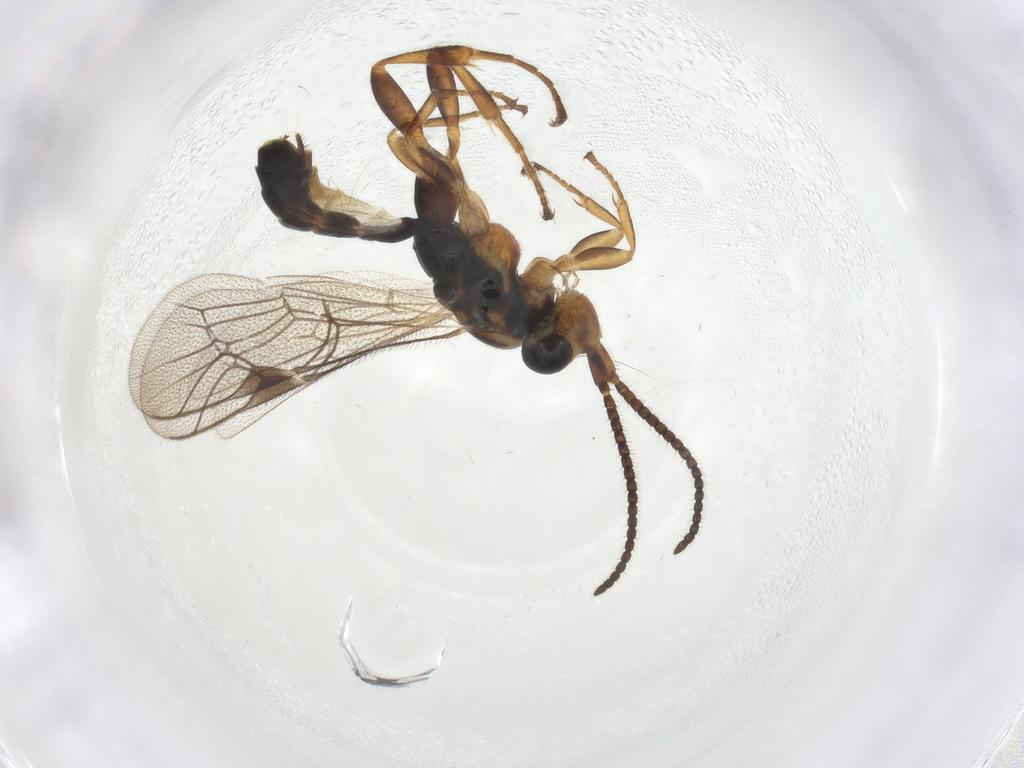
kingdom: Animalia
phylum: Arthropoda
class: Insecta
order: Hymenoptera
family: Ichneumonidae
